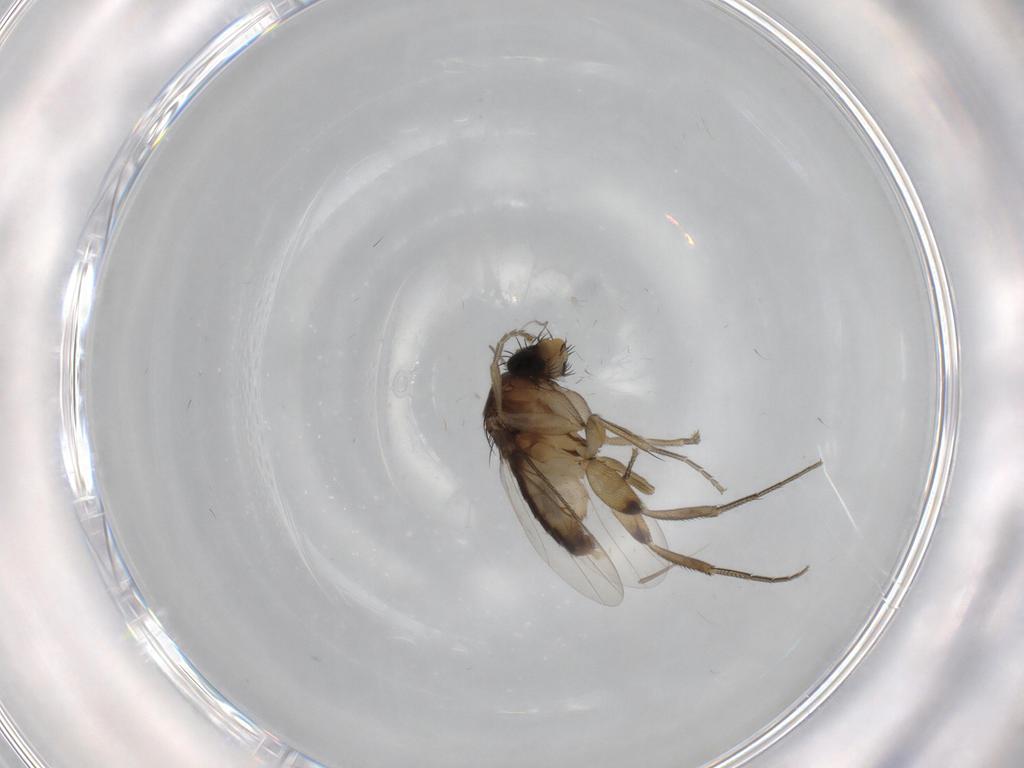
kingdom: Animalia
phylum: Arthropoda
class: Insecta
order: Diptera
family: Phoridae
